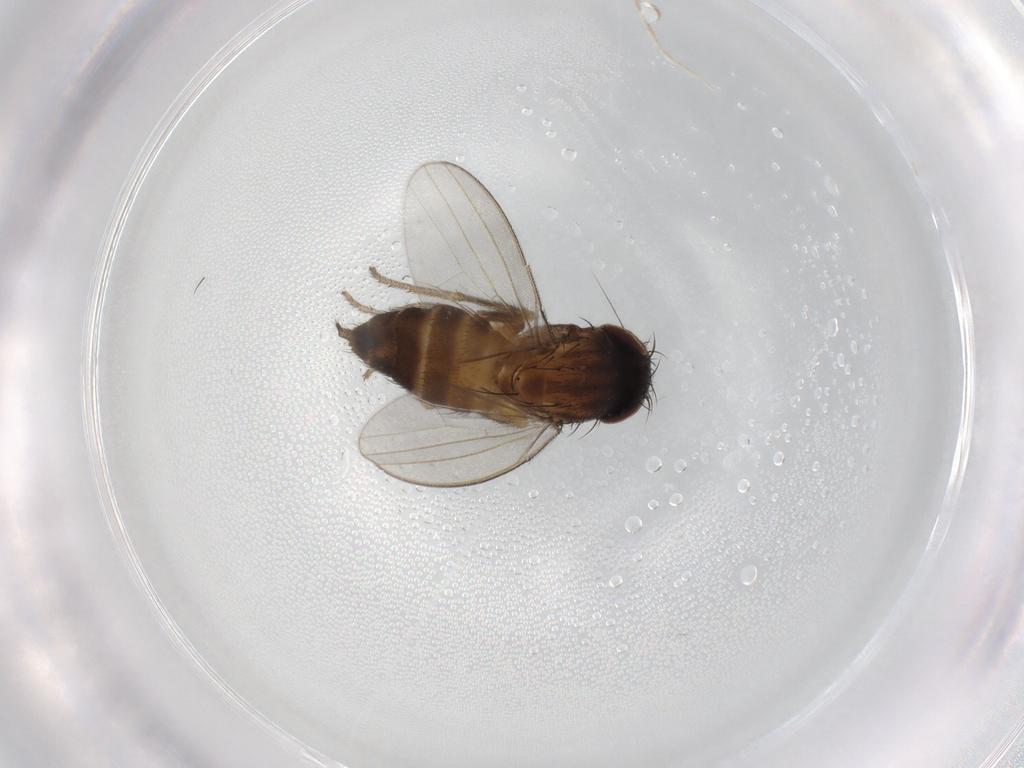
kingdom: Animalia
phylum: Arthropoda
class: Insecta
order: Diptera
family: Milichiidae
